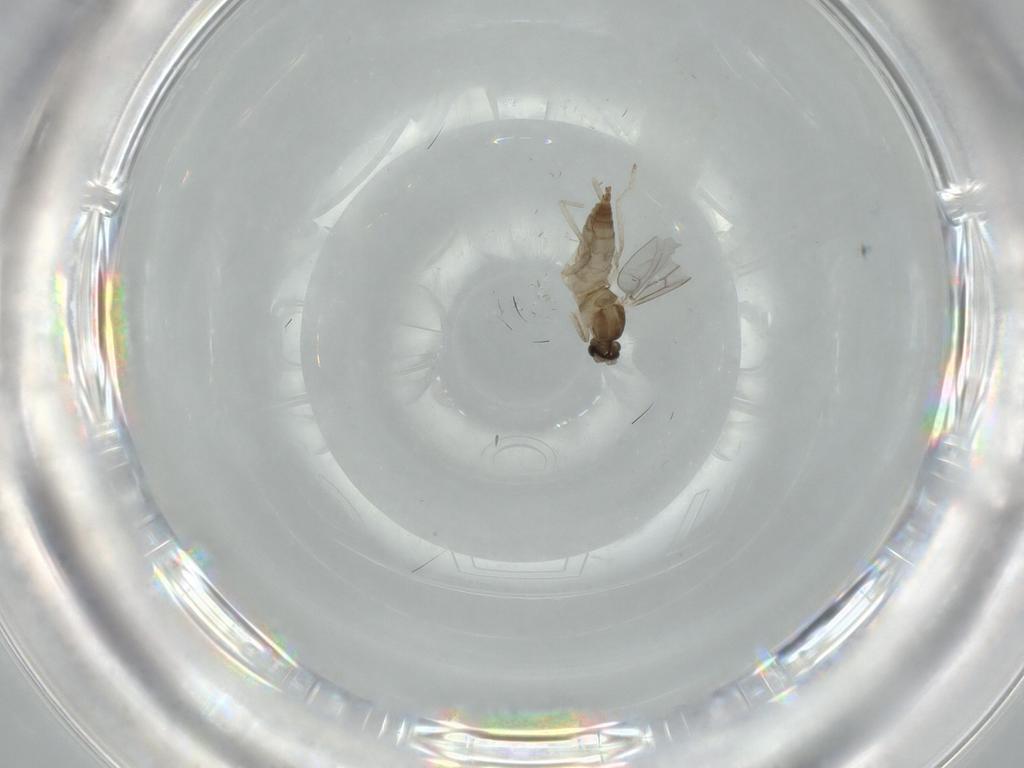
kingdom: Animalia
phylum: Arthropoda
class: Insecta
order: Diptera
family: Cecidomyiidae
